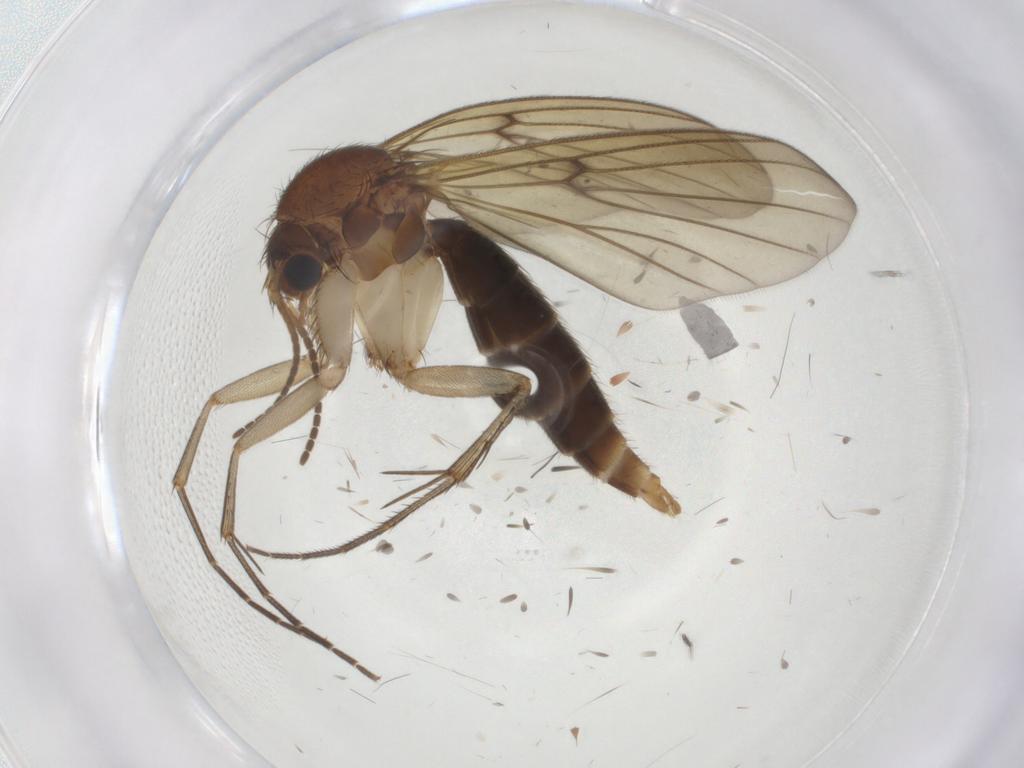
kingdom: Animalia
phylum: Arthropoda
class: Insecta
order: Diptera
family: Mycetophilidae
